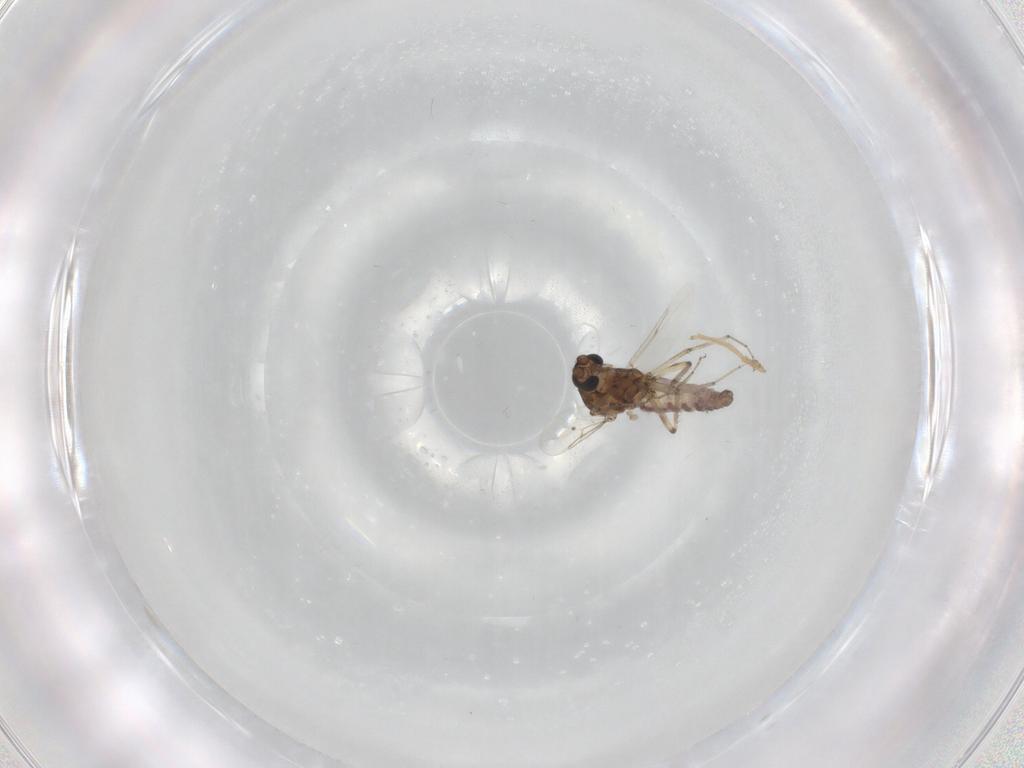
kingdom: Animalia
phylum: Arthropoda
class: Insecta
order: Diptera
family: Ceratopogonidae
